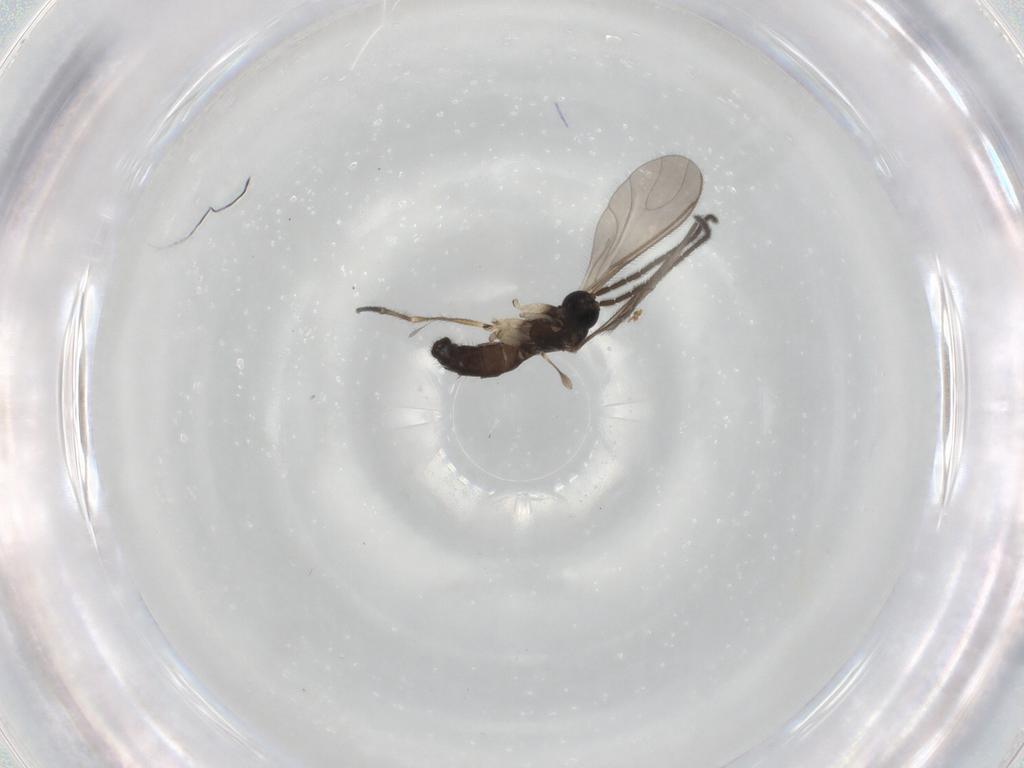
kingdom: Animalia
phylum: Arthropoda
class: Insecta
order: Diptera
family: Sciaridae
